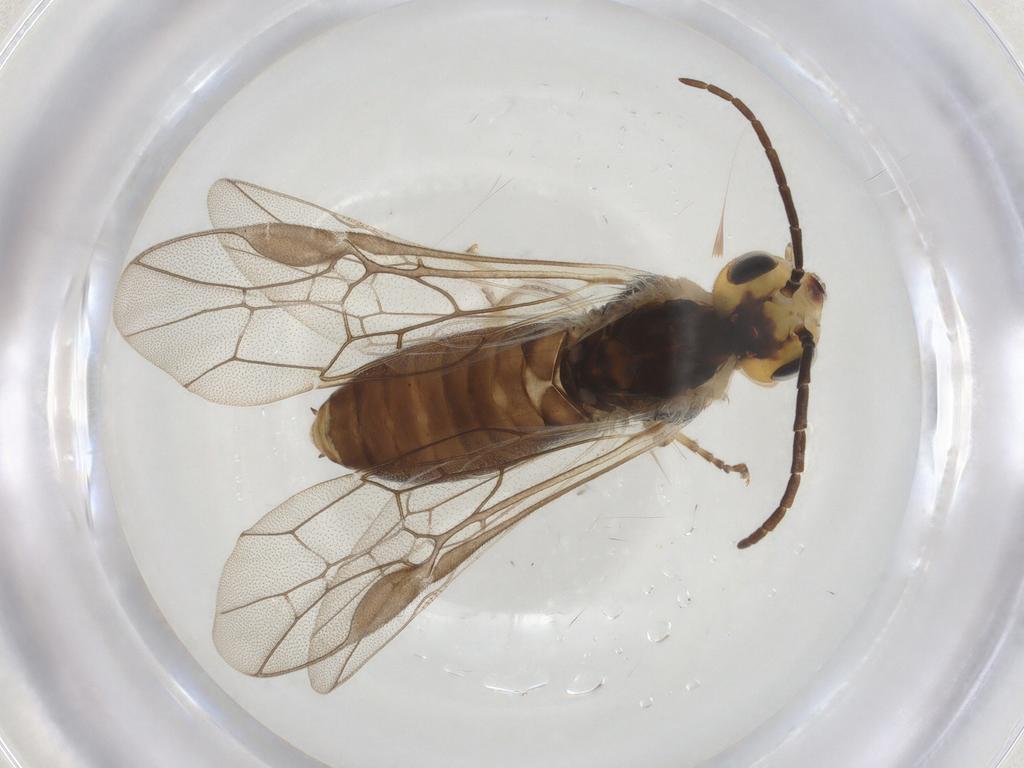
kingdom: Animalia
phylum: Arthropoda
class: Insecta
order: Hymenoptera
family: Tenthredinidae
